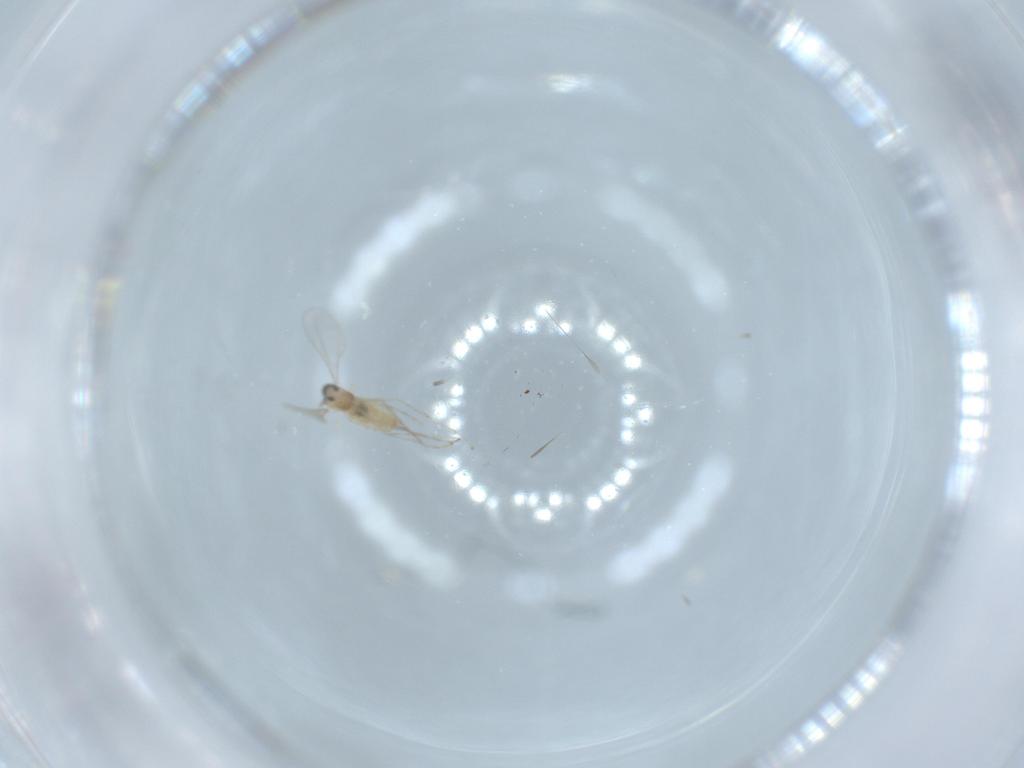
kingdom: Animalia
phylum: Arthropoda
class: Insecta
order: Diptera
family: Cecidomyiidae
